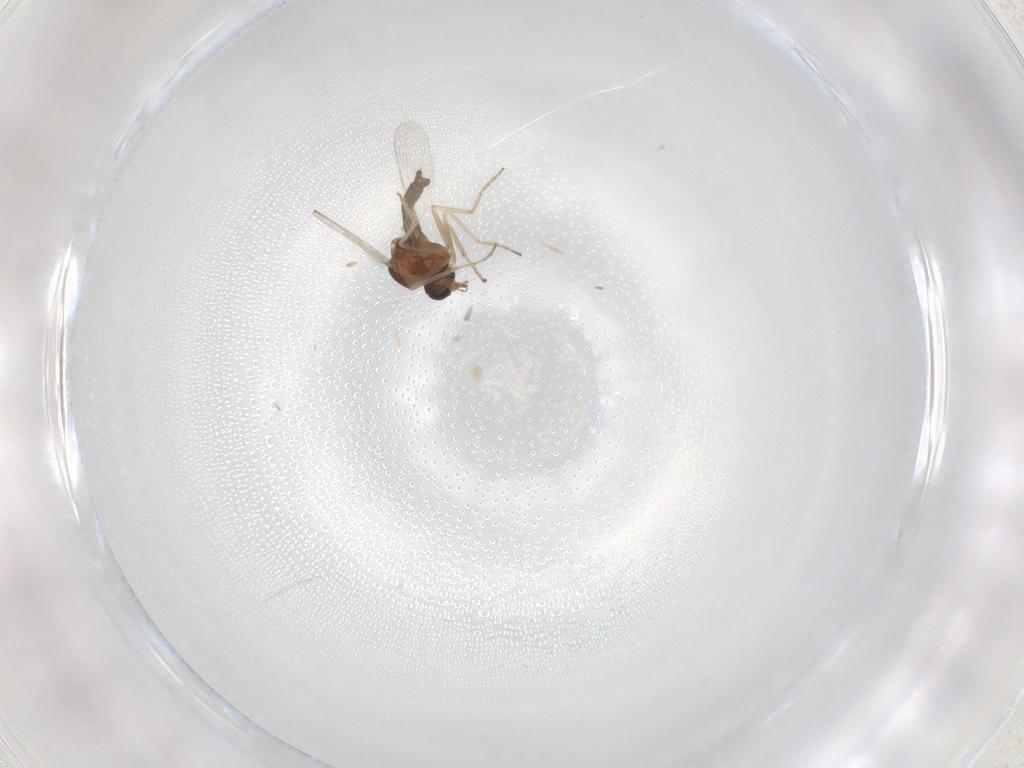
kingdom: Animalia
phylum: Arthropoda
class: Insecta
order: Diptera
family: Ceratopogonidae
